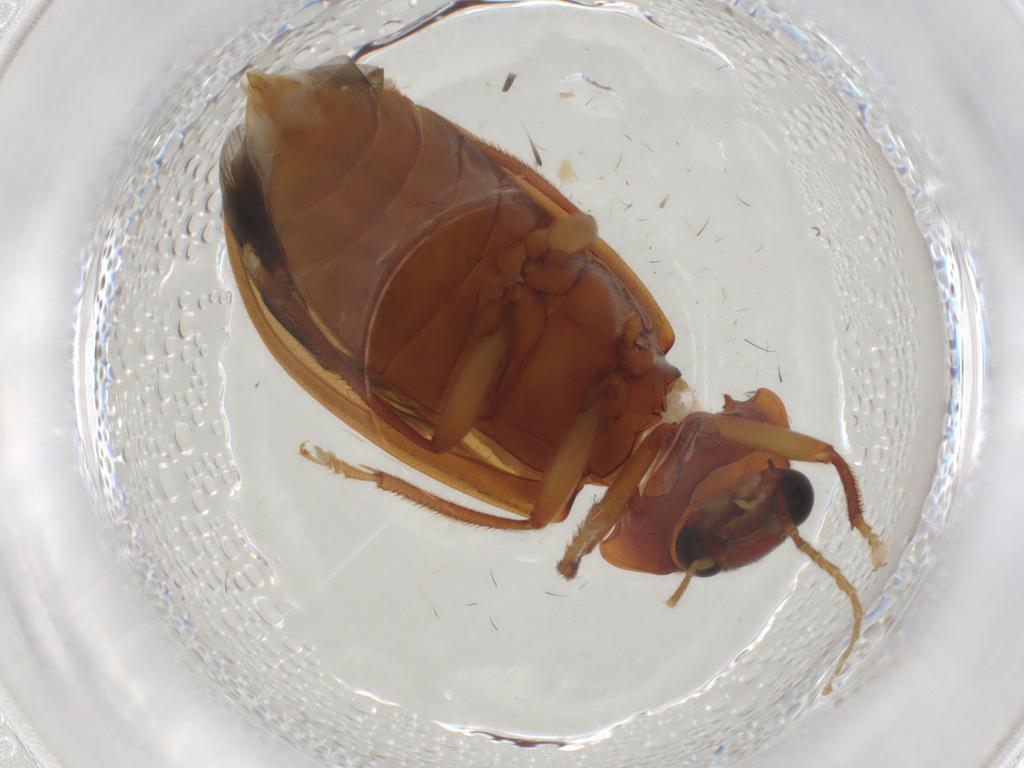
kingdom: Animalia
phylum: Arthropoda
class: Insecta
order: Coleoptera
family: Ptilodactylidae
